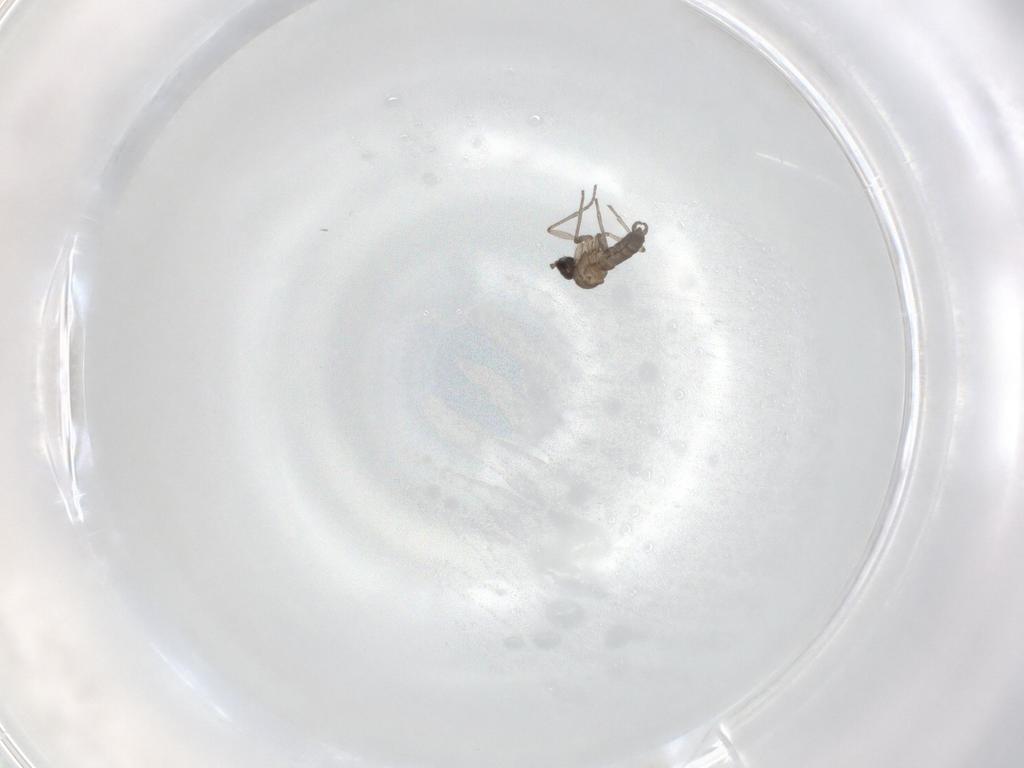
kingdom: Animalia
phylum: Arthropoda
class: Insecta
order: Diptera
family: Sciaridae
